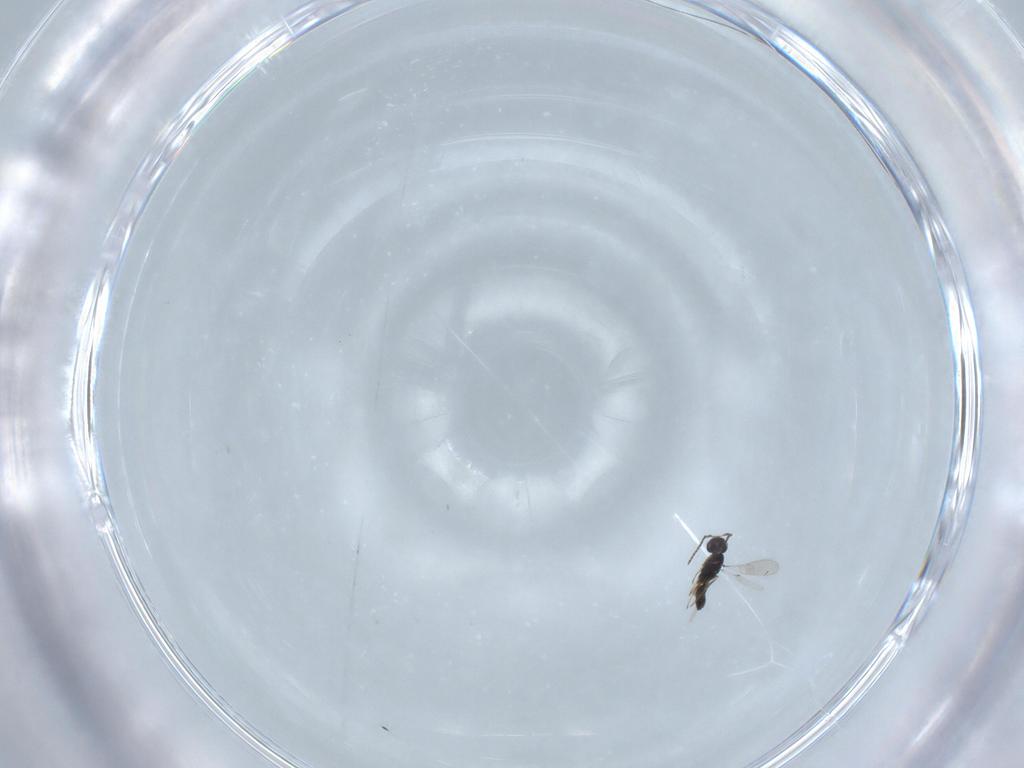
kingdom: Animalia
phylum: Arthropoda
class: Insecta
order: Hymenoptera
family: Scelionidae
